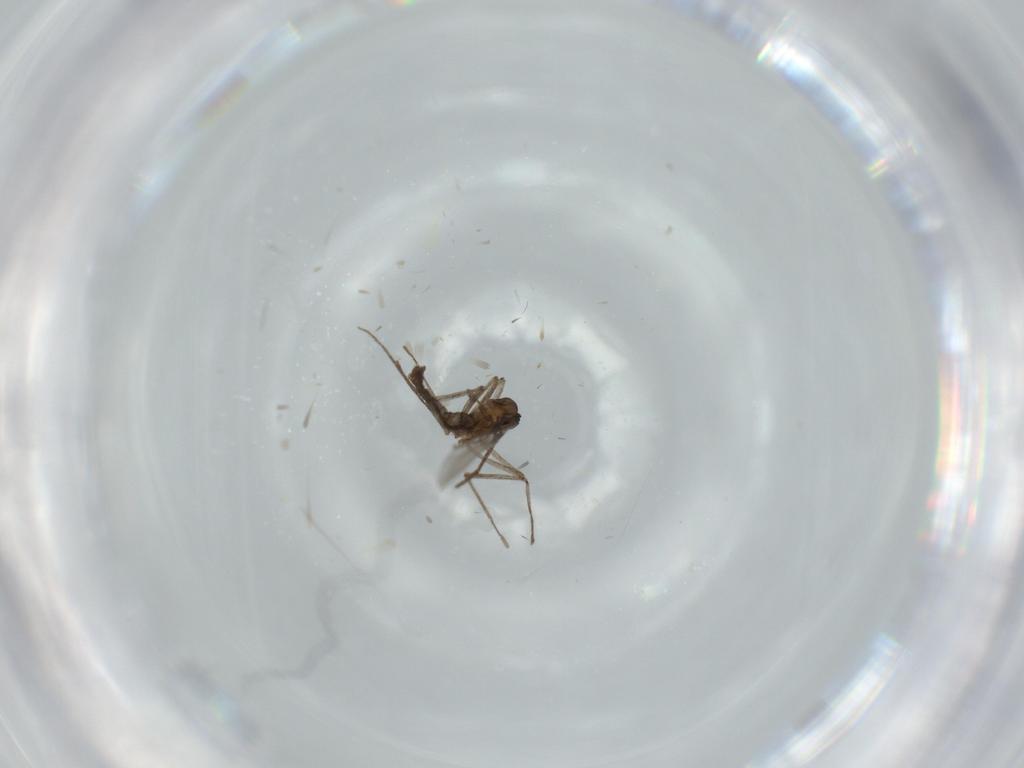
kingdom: Animalia
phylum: Arthropoda
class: Insecta
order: Diptera
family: Cecidomyiidae
